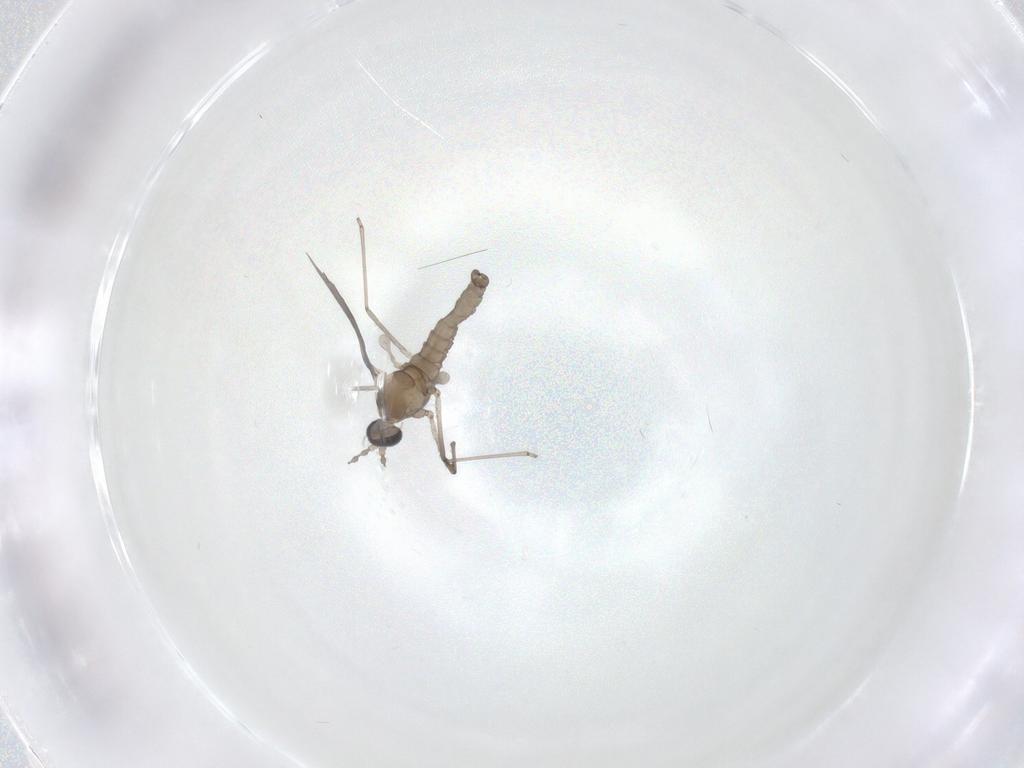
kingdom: Animalia
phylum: Arthropoda
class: Insecta
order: Diptera
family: Cecidomyiidae
